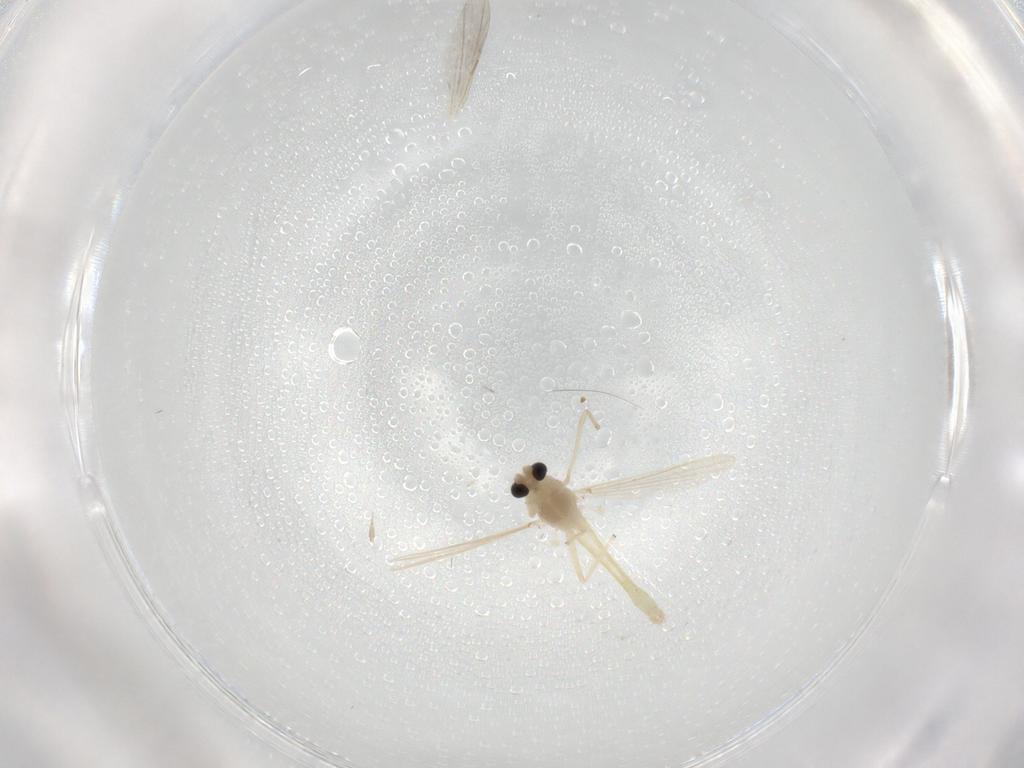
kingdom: Animalia
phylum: Arthropoda
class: Insecta
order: Diptera
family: Chironomidae
